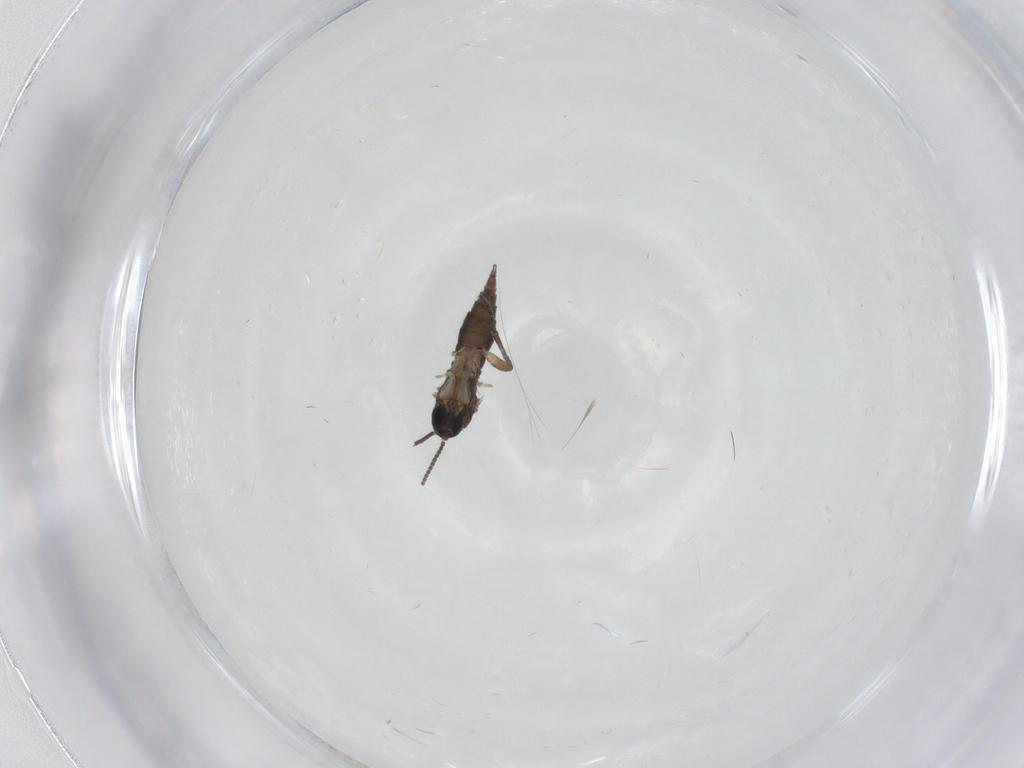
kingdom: Animalia
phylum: Arthropoda
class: Insecta
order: Diptera
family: Sciaridae
